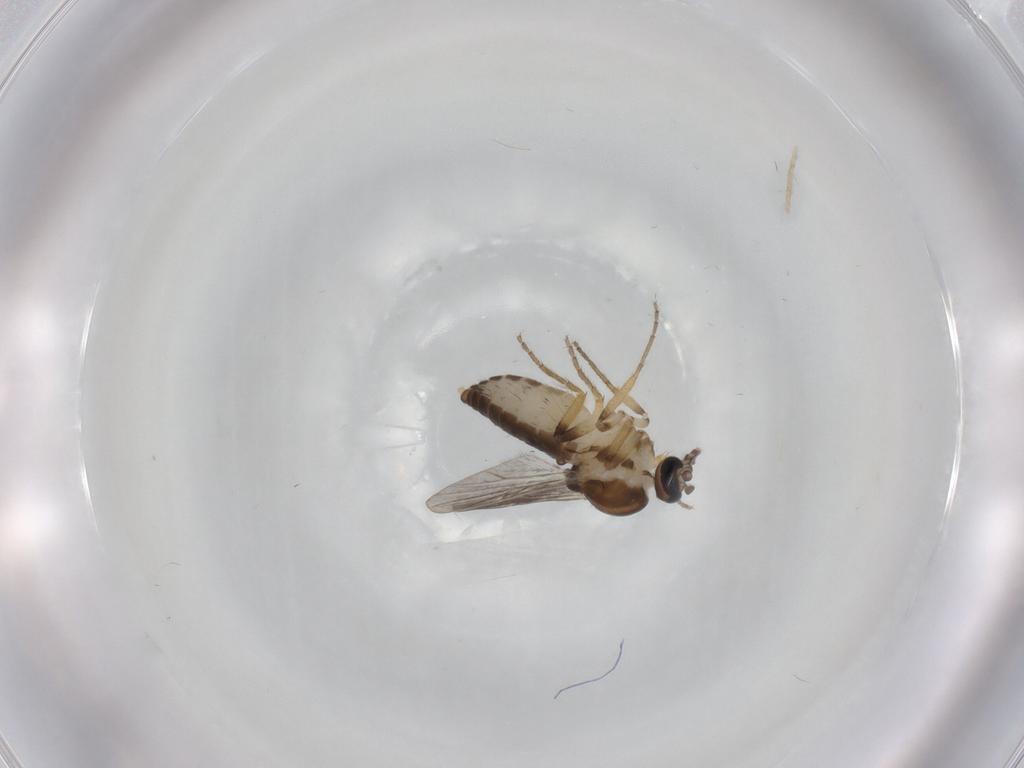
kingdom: Animalia
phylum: Arthropoda
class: Insecta
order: Diptera
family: Ceratopogonidae
